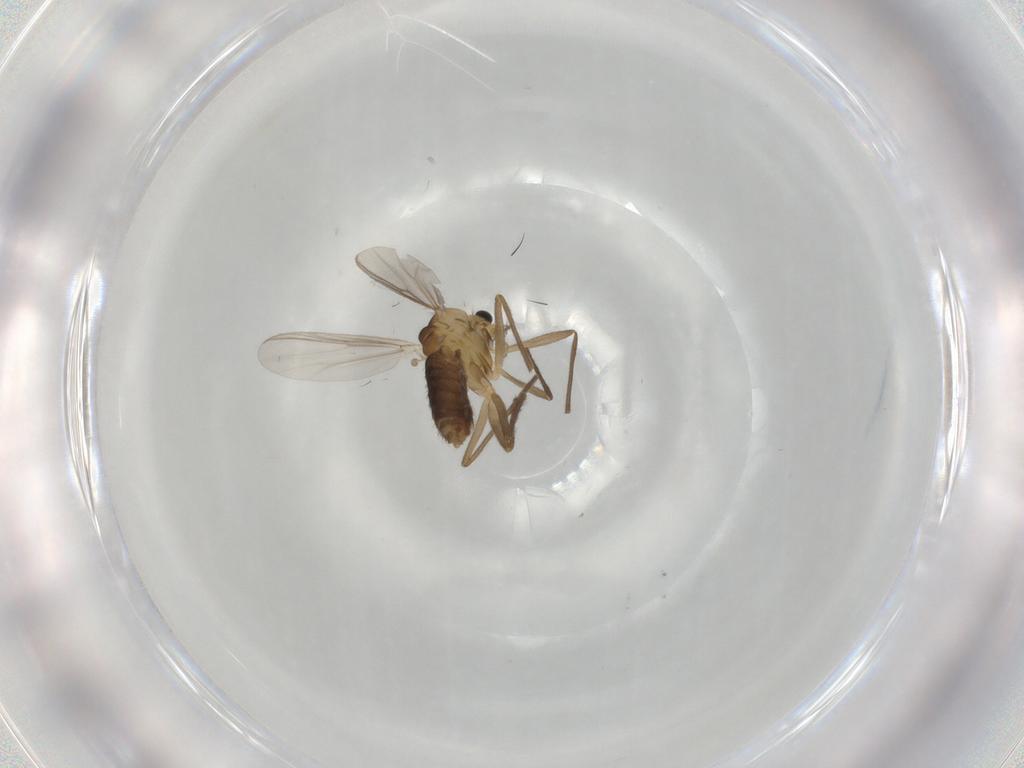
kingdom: Animalia
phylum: Arthropoda
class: Insecta
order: Diptera
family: Chironomidae
